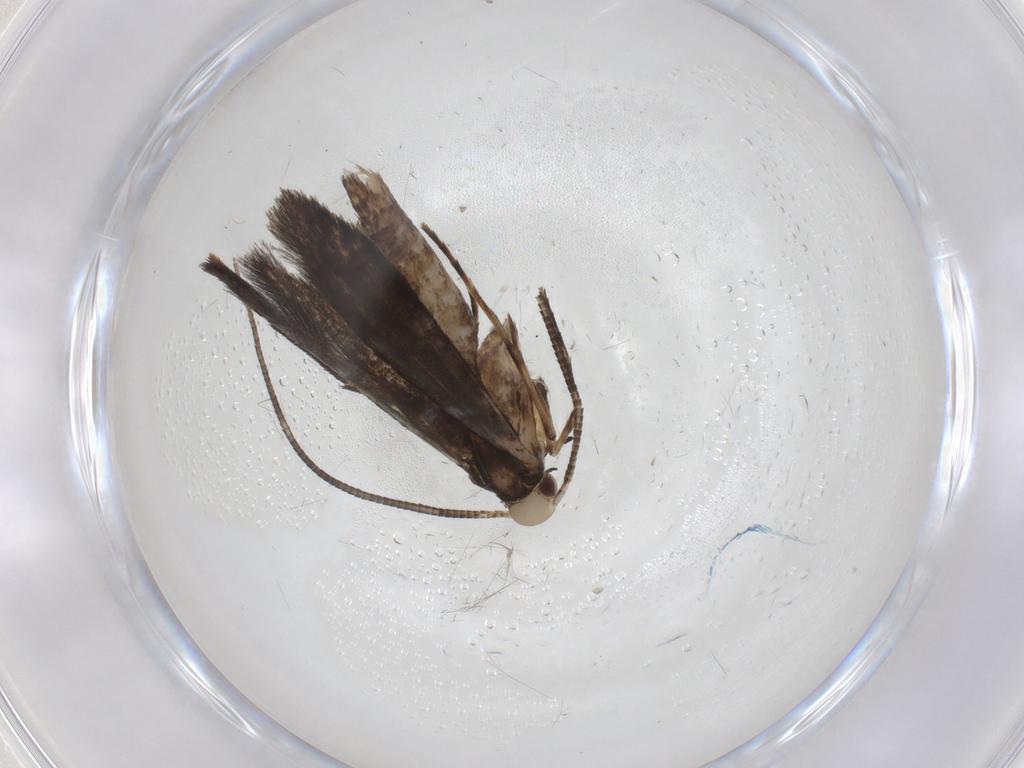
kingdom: Animalia
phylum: Arthropoda
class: Insecta
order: Lepidoptera
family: Gracillariidae
